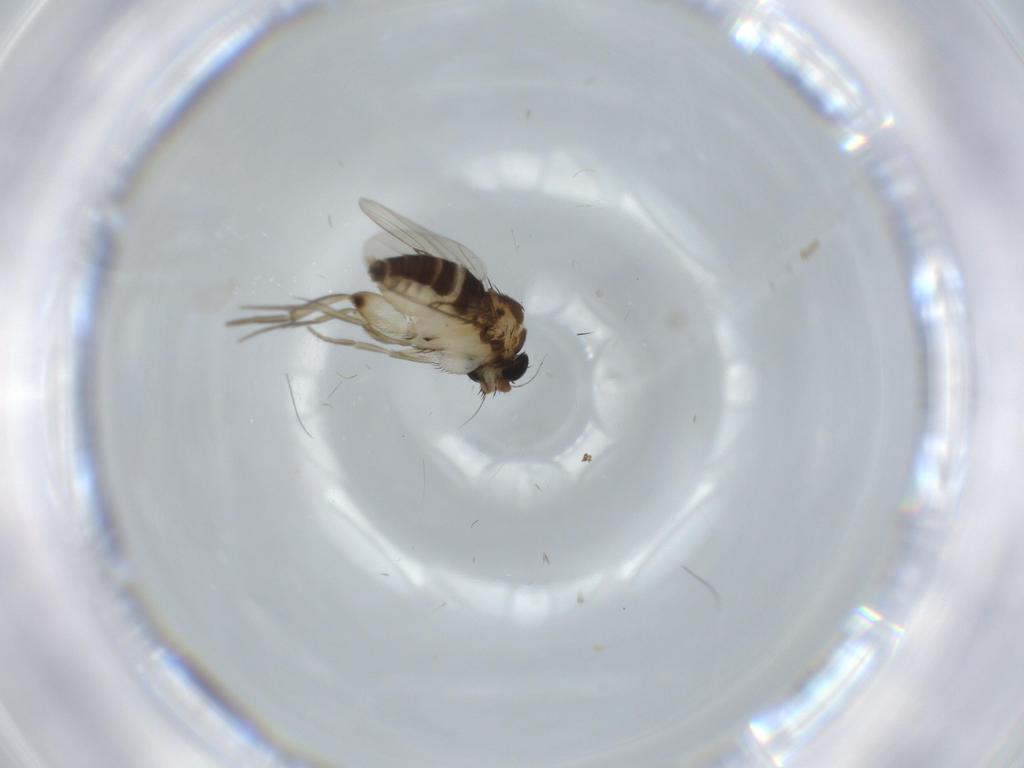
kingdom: Animalia
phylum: Arthropoda
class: Insecta
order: Diptera
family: Phoridae
